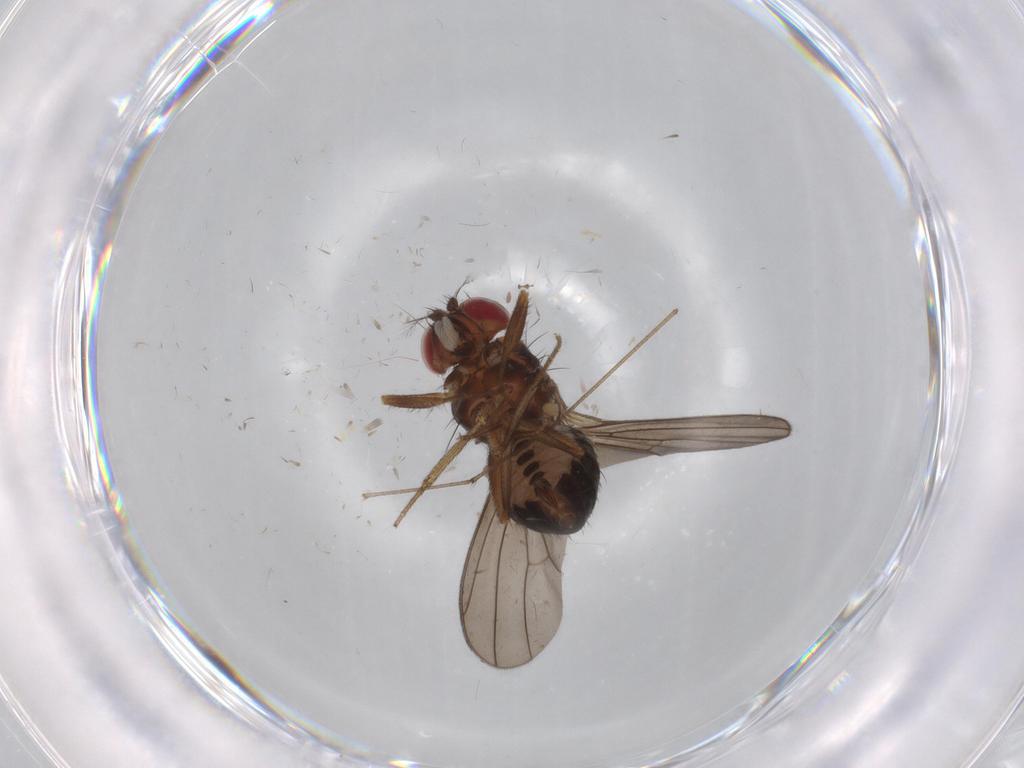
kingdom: Animalia
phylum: Arthropoda
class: Insecta
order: Diptera
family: Drosophilidae
